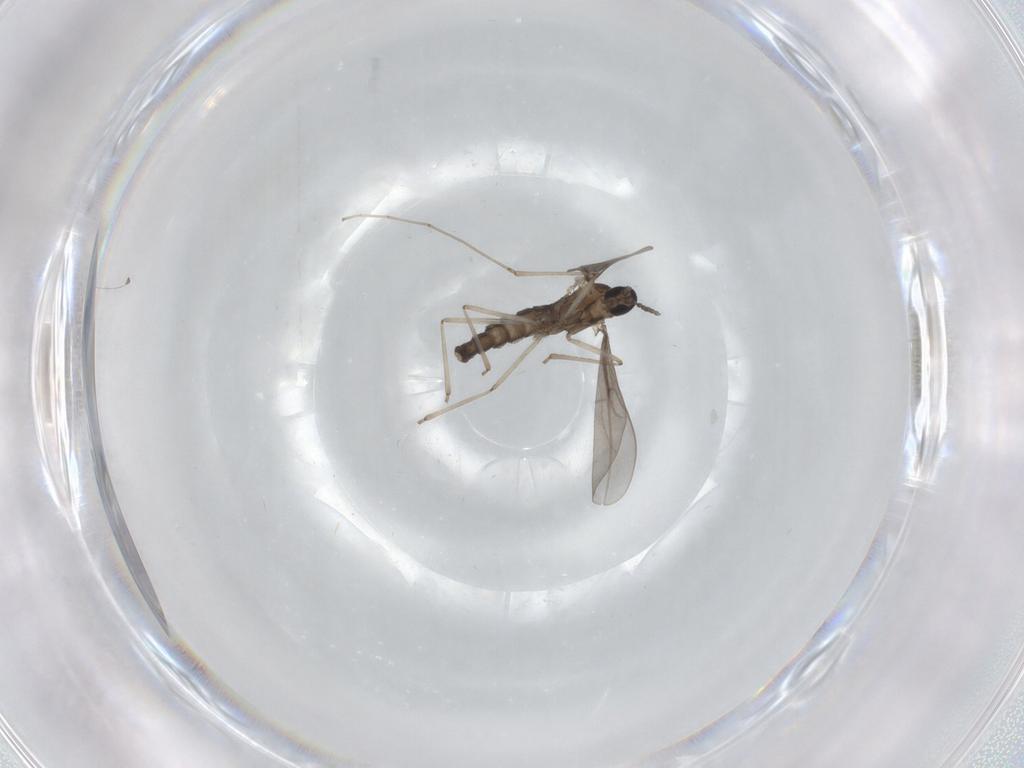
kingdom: Animalia
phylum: Arthropoda
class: Insecta
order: Diptera
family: Cecidomyiidae
